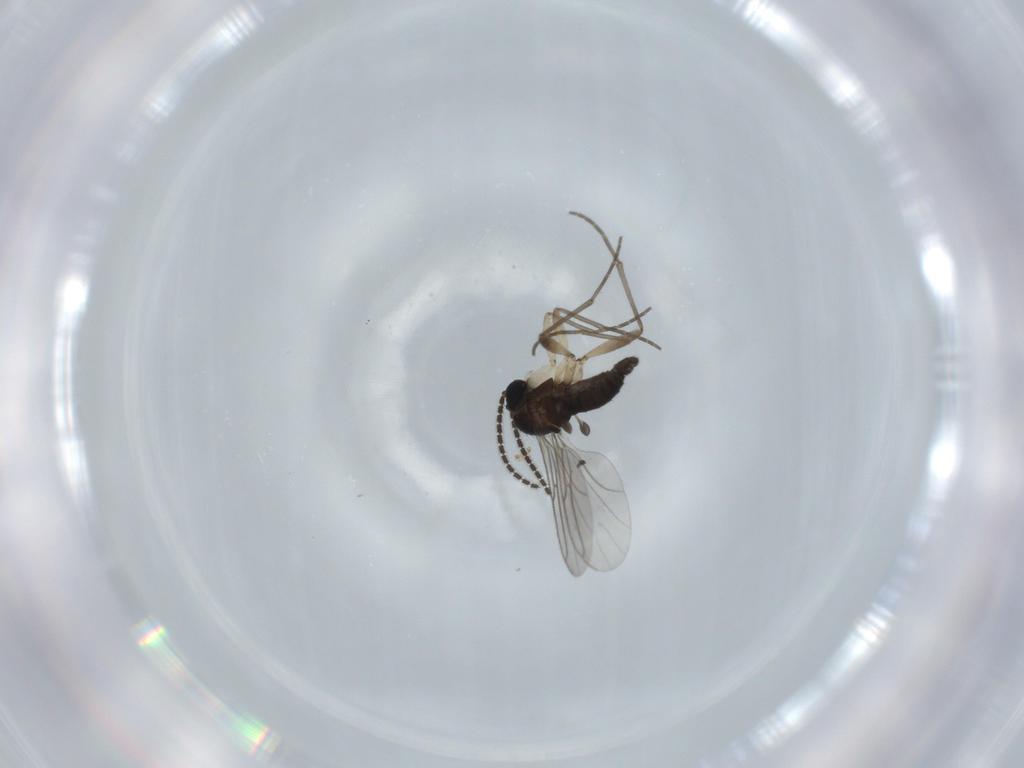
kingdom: Animalia
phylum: Arthropoda
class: Insecta
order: Diptera
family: Sciaridae
